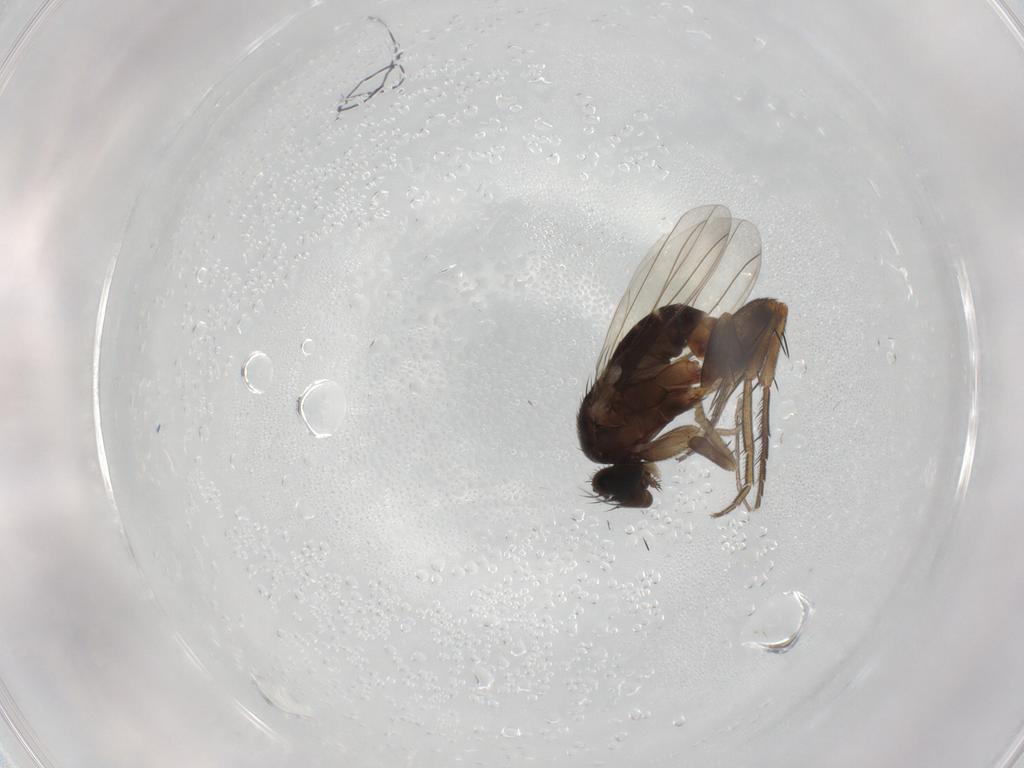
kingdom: Animalia
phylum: Arthropoda
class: Insecta
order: Diptera
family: Phoridae
